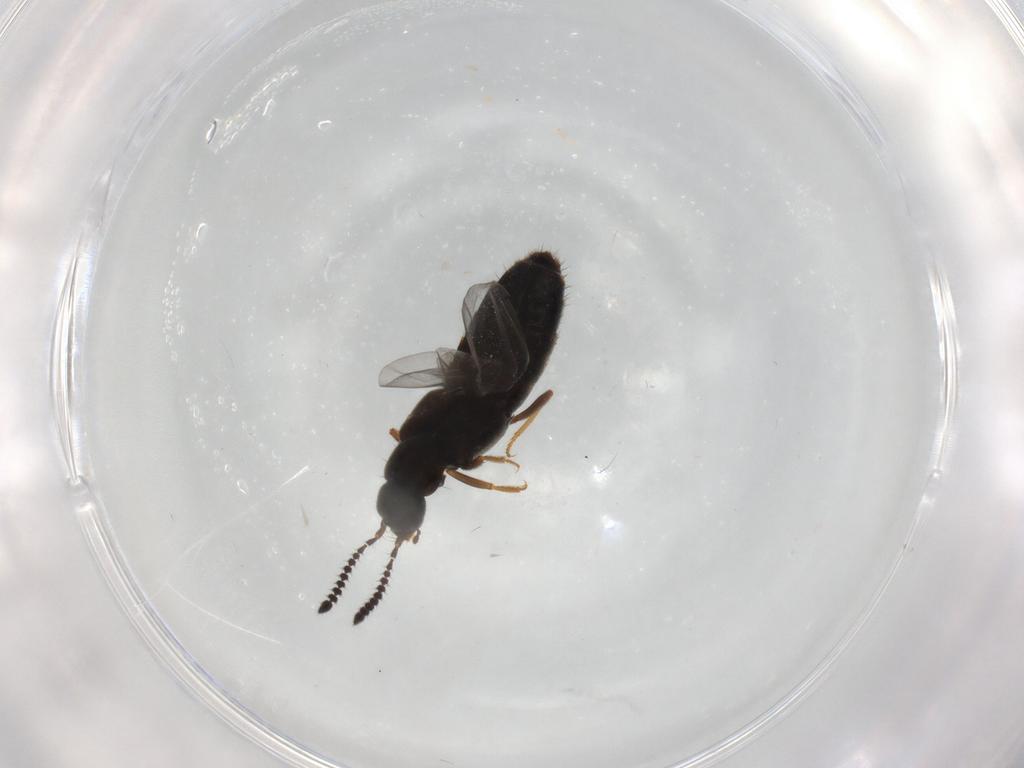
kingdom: Animalia
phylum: Arthropoda
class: Insecta
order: Coleoptera
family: Staphylinidae
